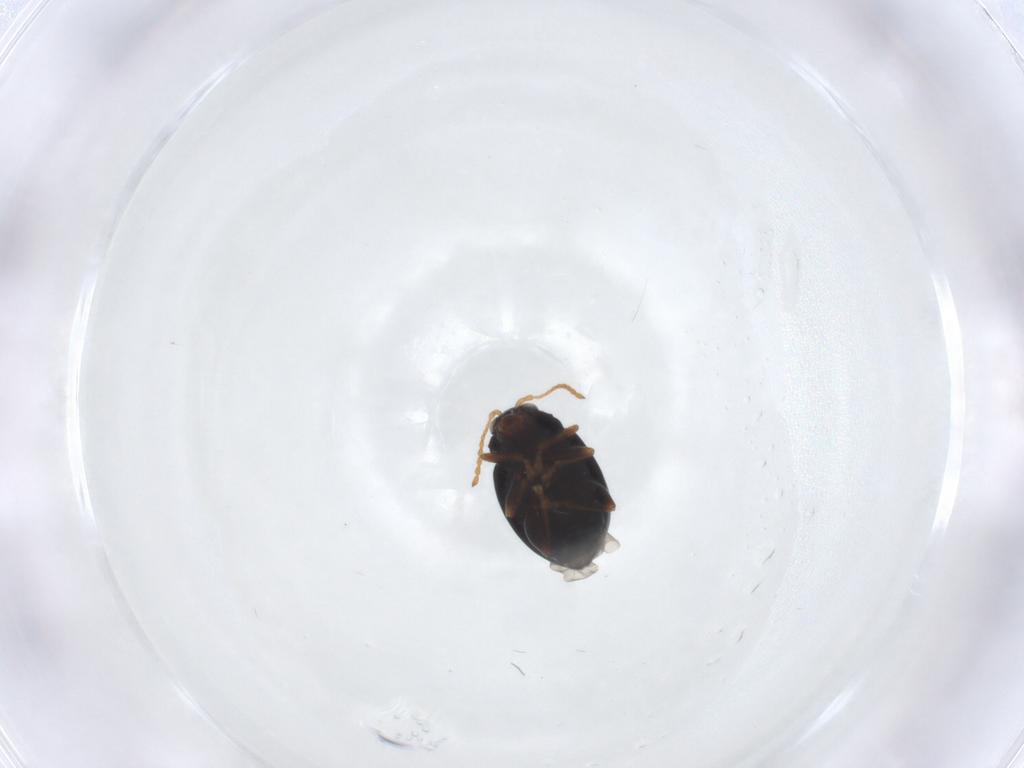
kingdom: Animalia
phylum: Arthropoda
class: Insecta
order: Coleoptera
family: Chrysomelidae
